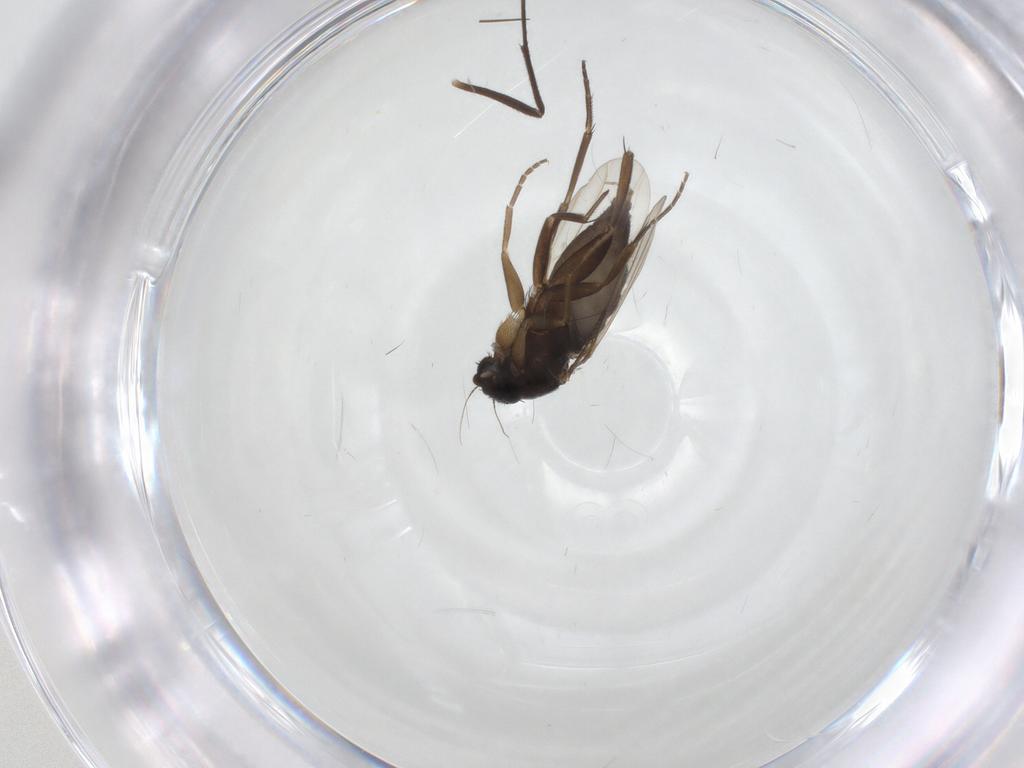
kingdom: Animalia
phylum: Arthropoda
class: Insecta
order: Diptera
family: Phoridae
